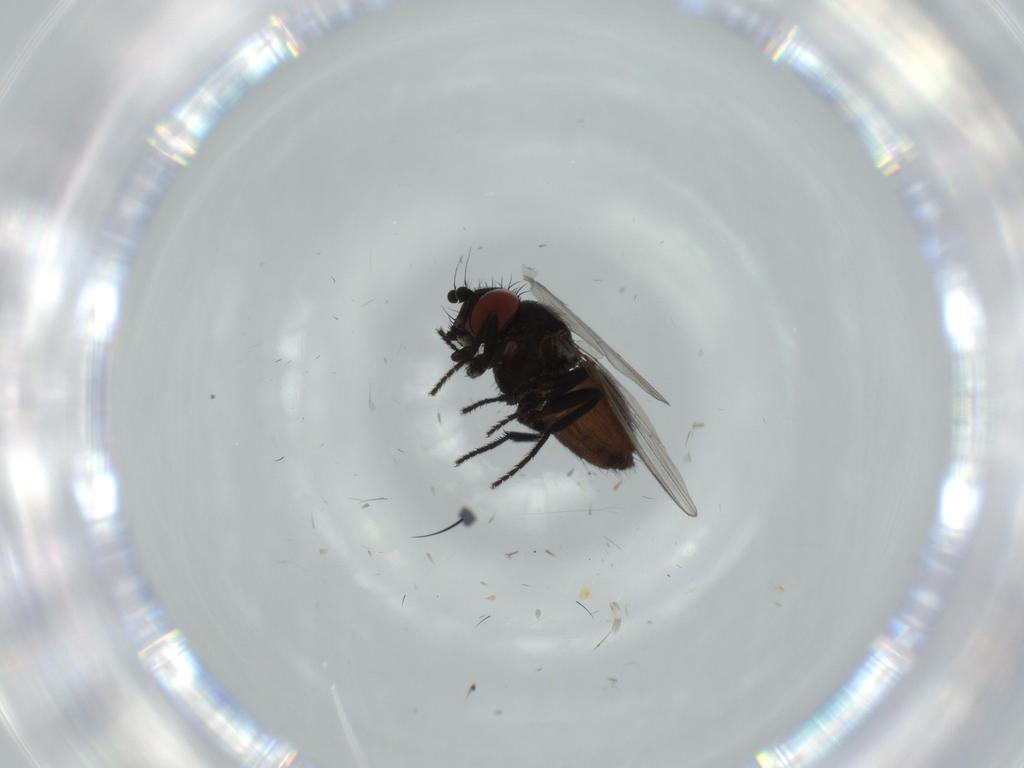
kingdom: Animalia
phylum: Arthropoda
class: Insecta
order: Diptera
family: Milichiidae
